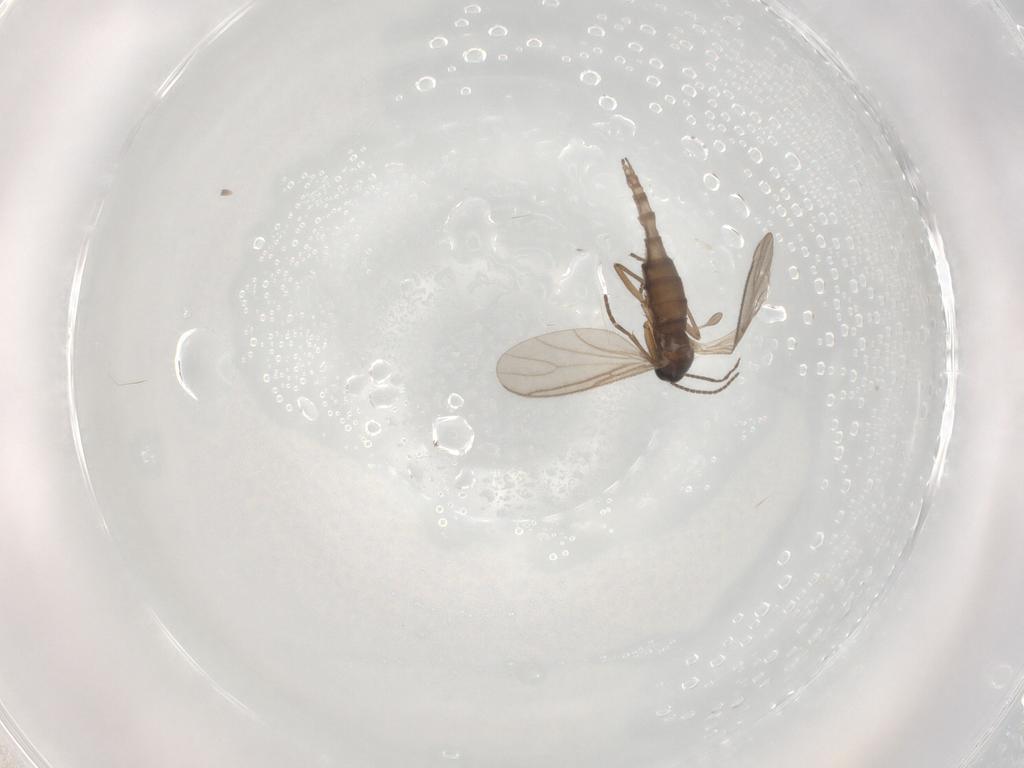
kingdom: Animalia
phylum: Arthropoda
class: Insecta
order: Diptera
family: Sciaridae
